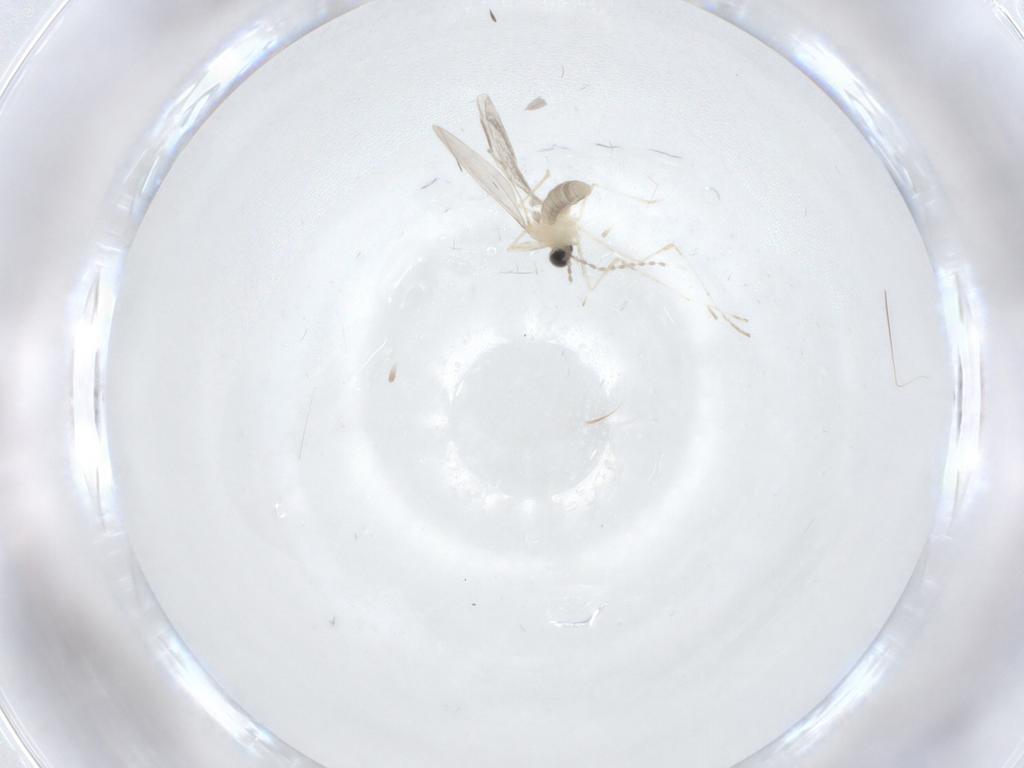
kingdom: Animalia
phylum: Arthropoda
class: Insecta
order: Diptera
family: Cecidomyiidae
